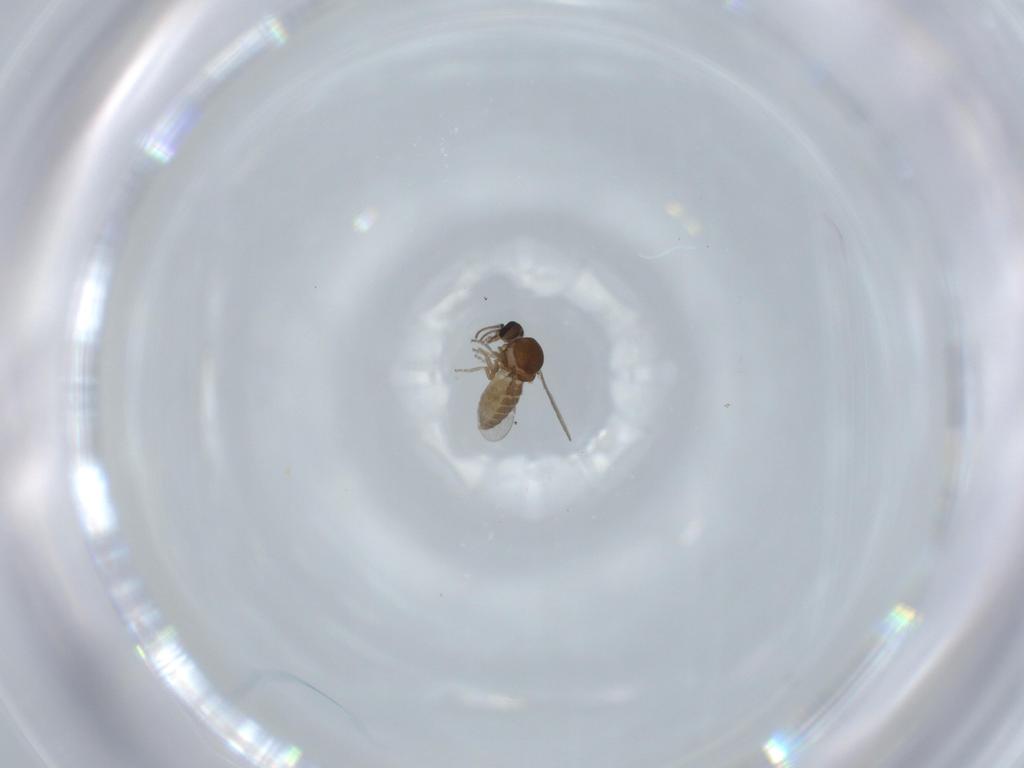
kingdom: Animalia
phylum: Arthropoda
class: Insecta
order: Diptera
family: Ceratopogonidae
